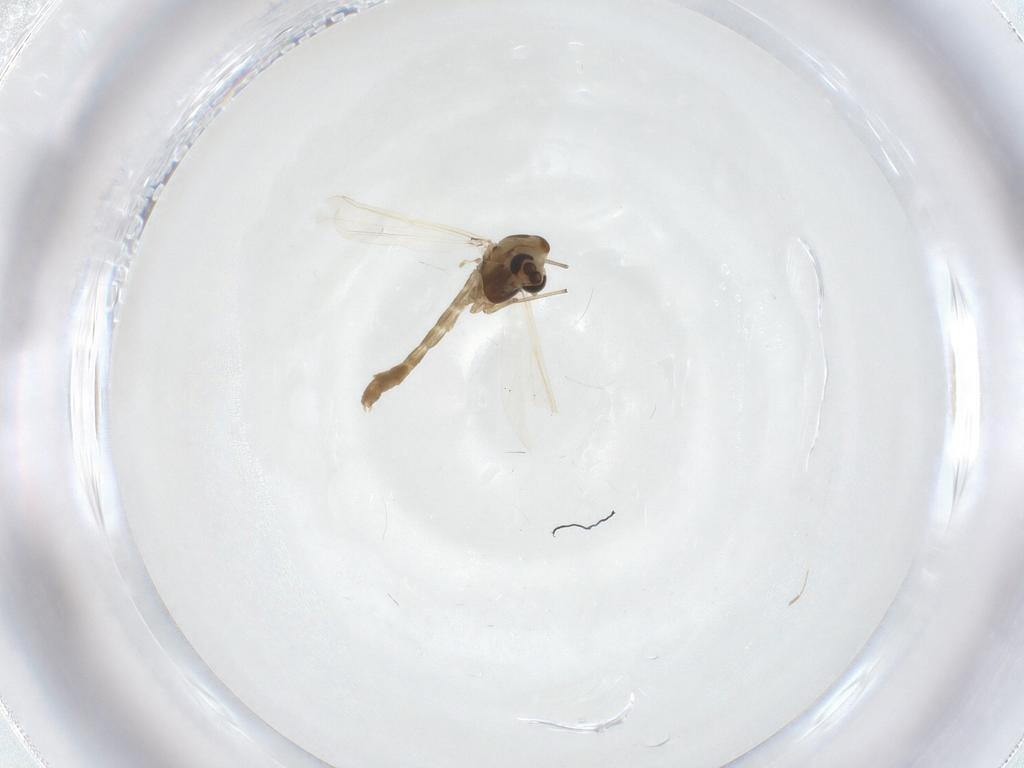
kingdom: Animalia
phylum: Arthropoda
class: Insecta
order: Diptera
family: Chironomidae
